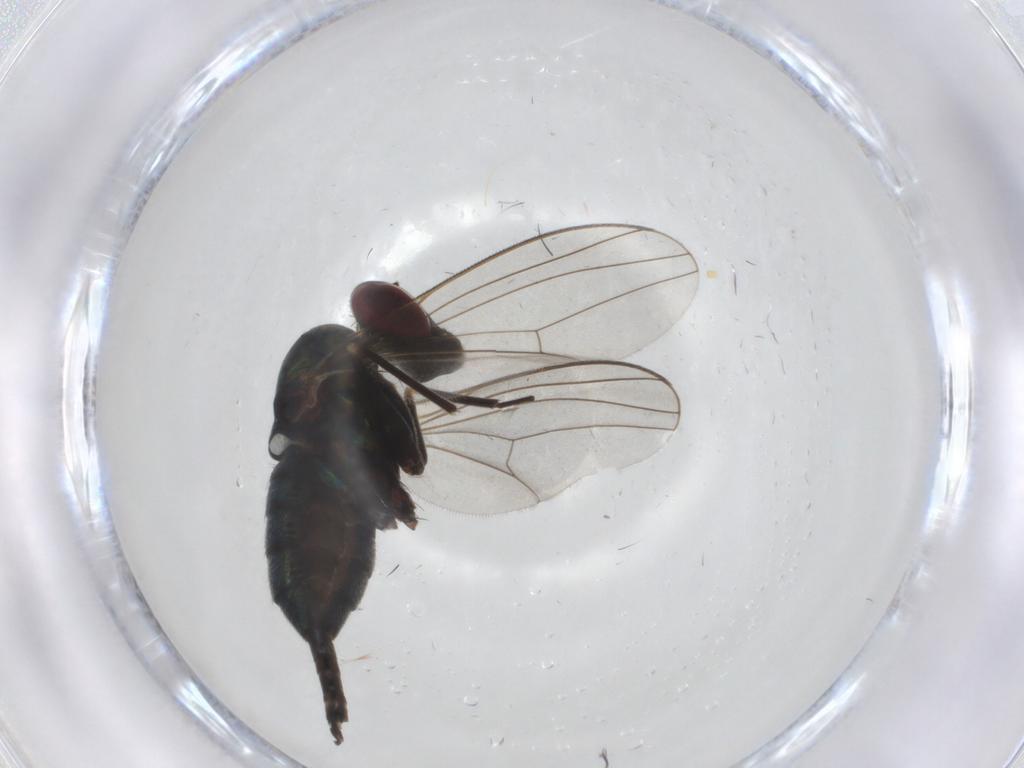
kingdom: Animalia
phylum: Arthropoda
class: Insecta
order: Diptera
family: Dolichopodidae
